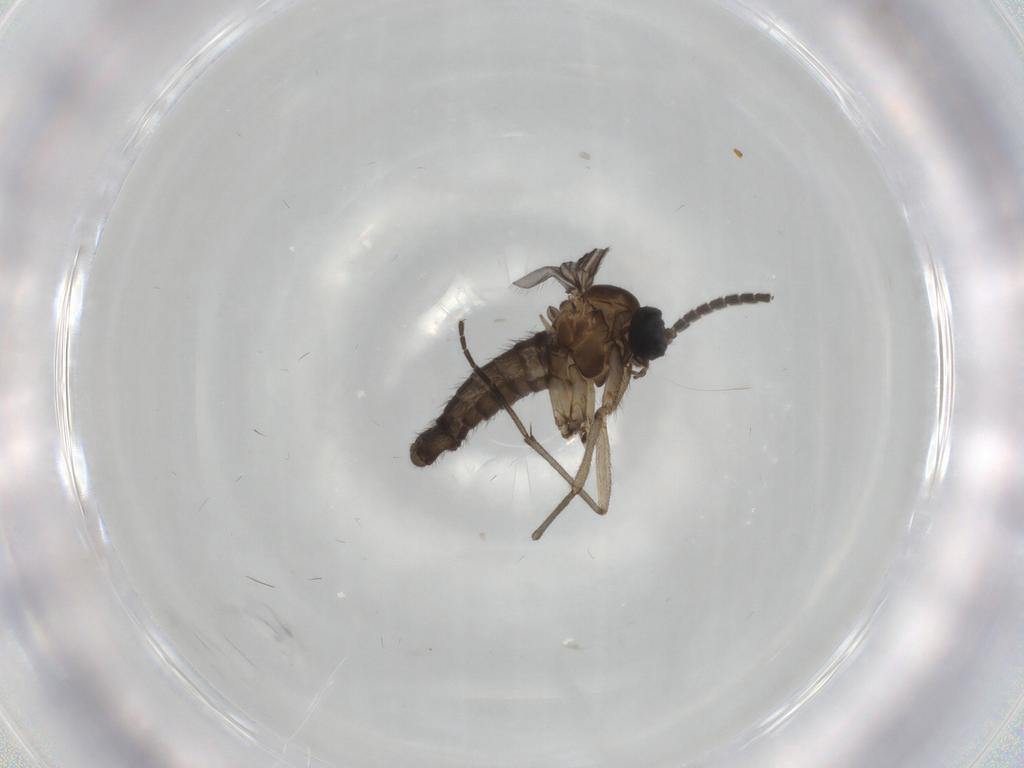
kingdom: Animalia
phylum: Arthropoda
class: Insecta
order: Diptera
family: Sciaridae
